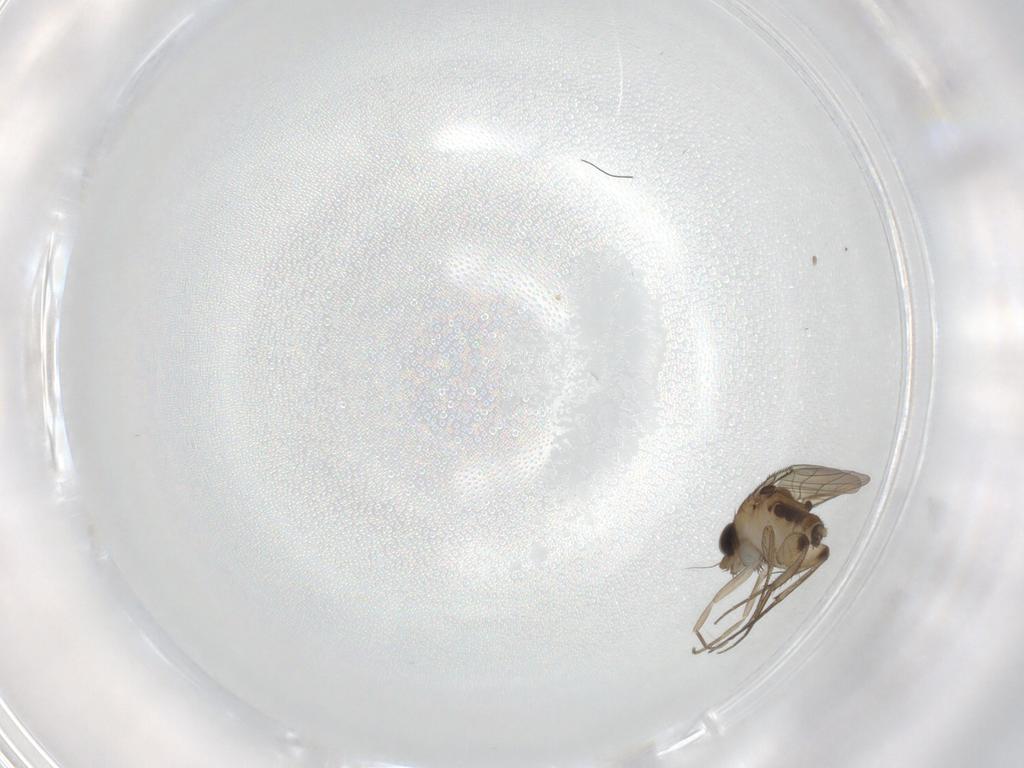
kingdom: Animalia
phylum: Arthropoda
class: Insecta
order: Diptera
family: Phoridae
